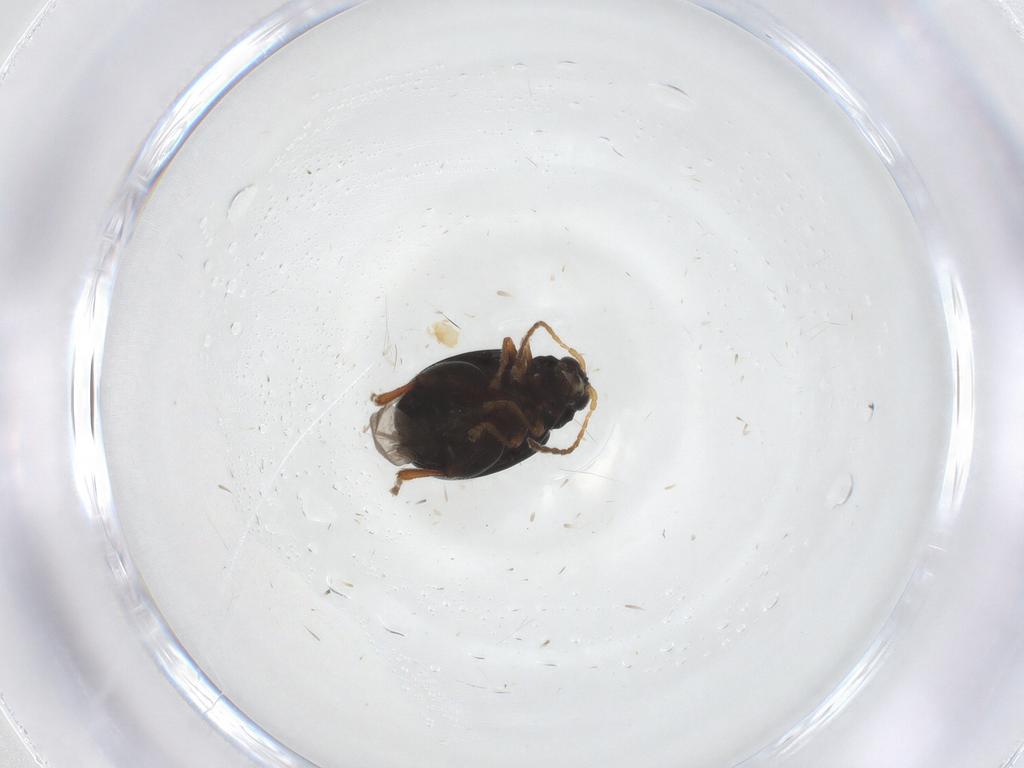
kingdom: Animalia
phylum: Arthropoda
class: Insecta
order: Coleoptera
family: Chrysomelidae
